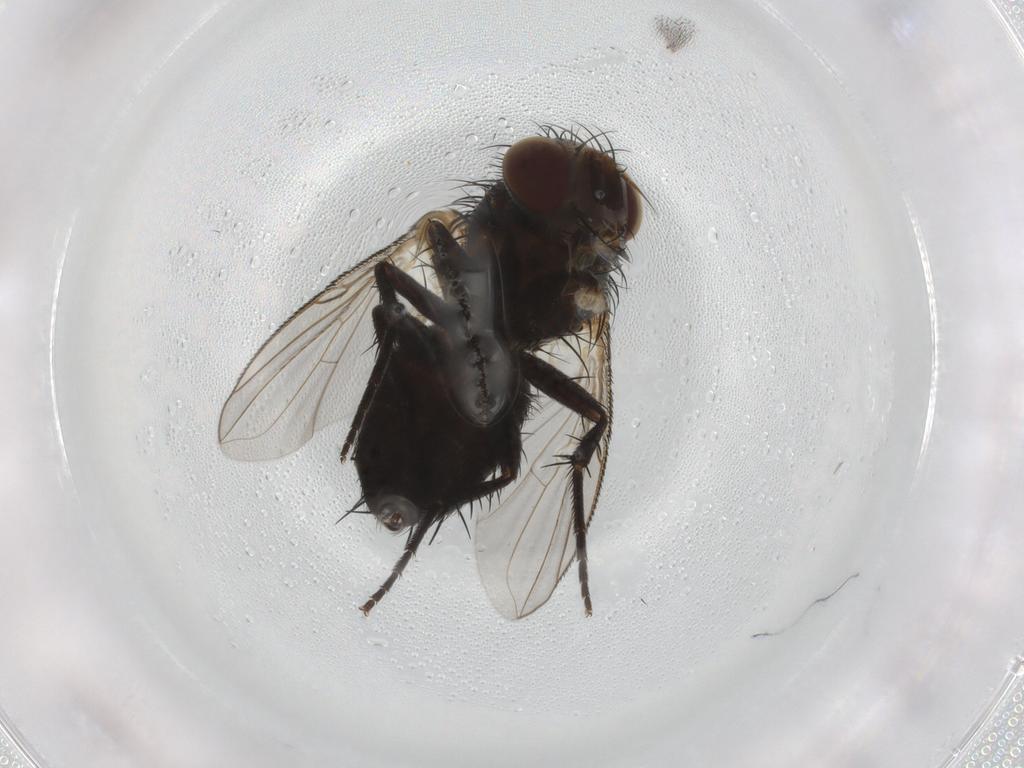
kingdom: Animalia
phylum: Arthropoda
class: Insecta
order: Diptera
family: Tachinidae
